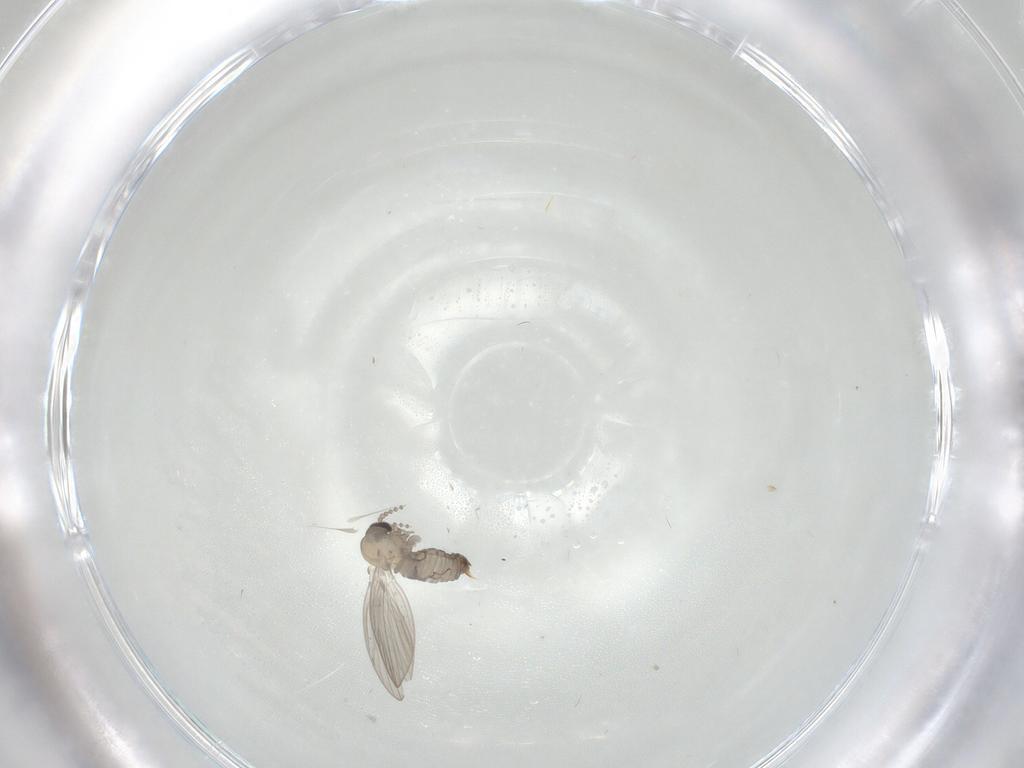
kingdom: Animalia
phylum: Arthropoda
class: Insecta
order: Diptera
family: Psychodidae
